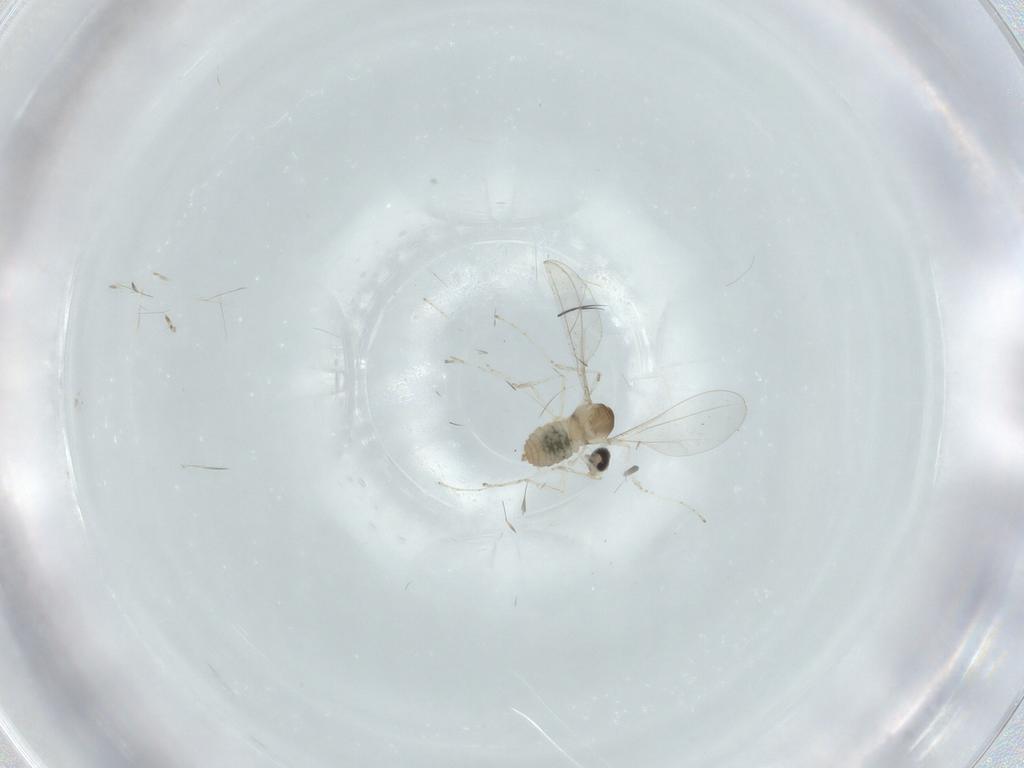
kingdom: Animalia
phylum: Arthropoda
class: Insecta
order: Diptera
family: Cecidomyiidae
